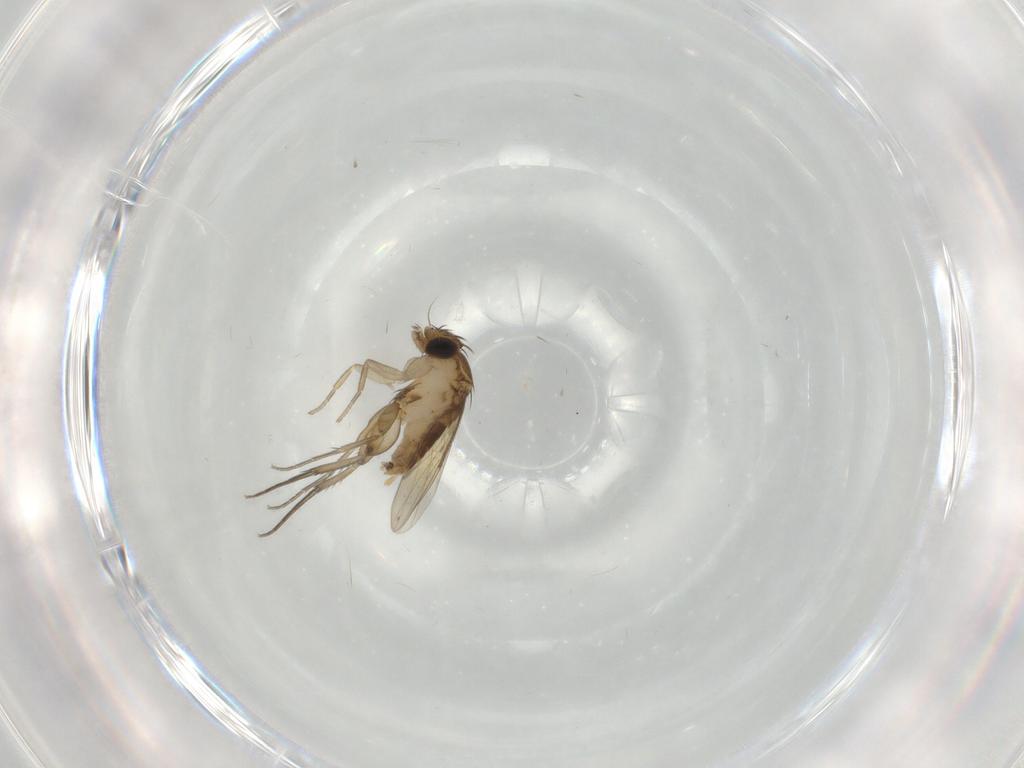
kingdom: Animalia
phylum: Arthropoda
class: Insecta
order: Diptera
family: Phoridae
